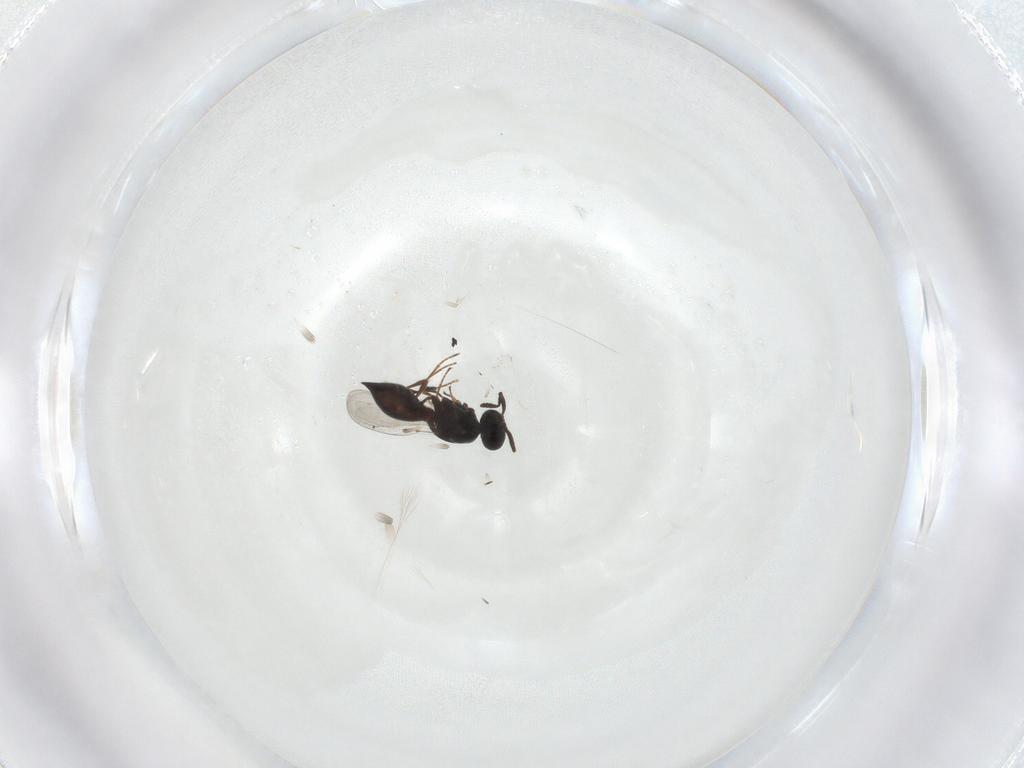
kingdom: Animalia
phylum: Arthropoda
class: Insecta
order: Hymenoptera
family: Platygastridae
